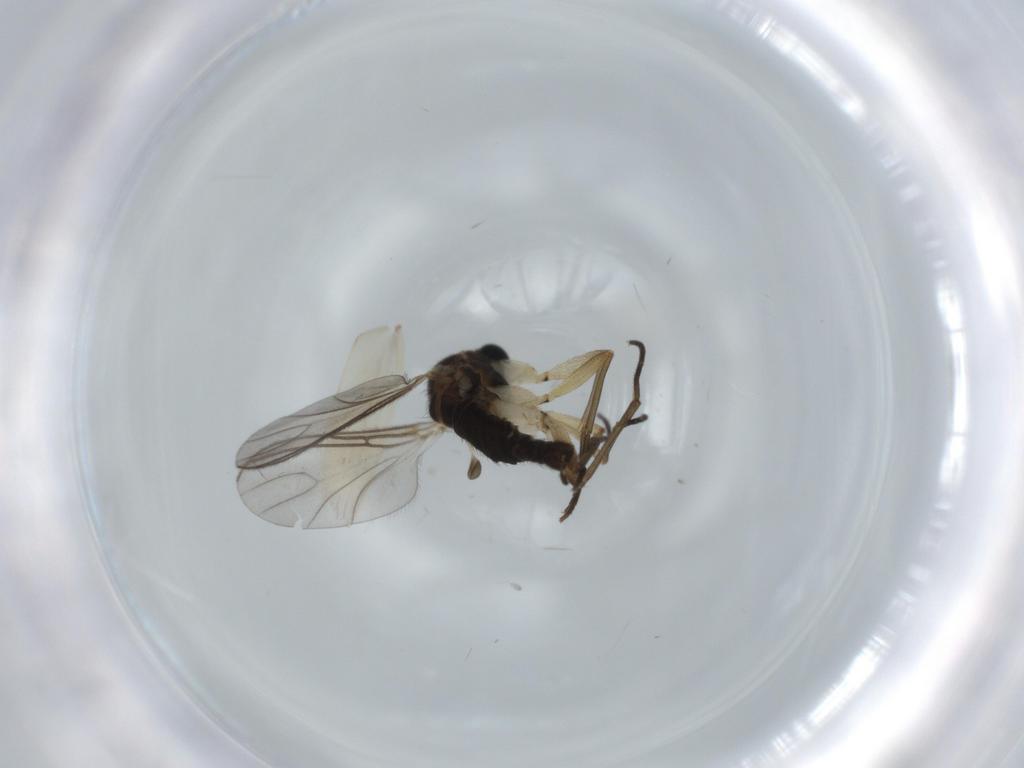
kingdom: Animalia
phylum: Arthropoda
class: Insecta
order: Diptera
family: Sciaridae
